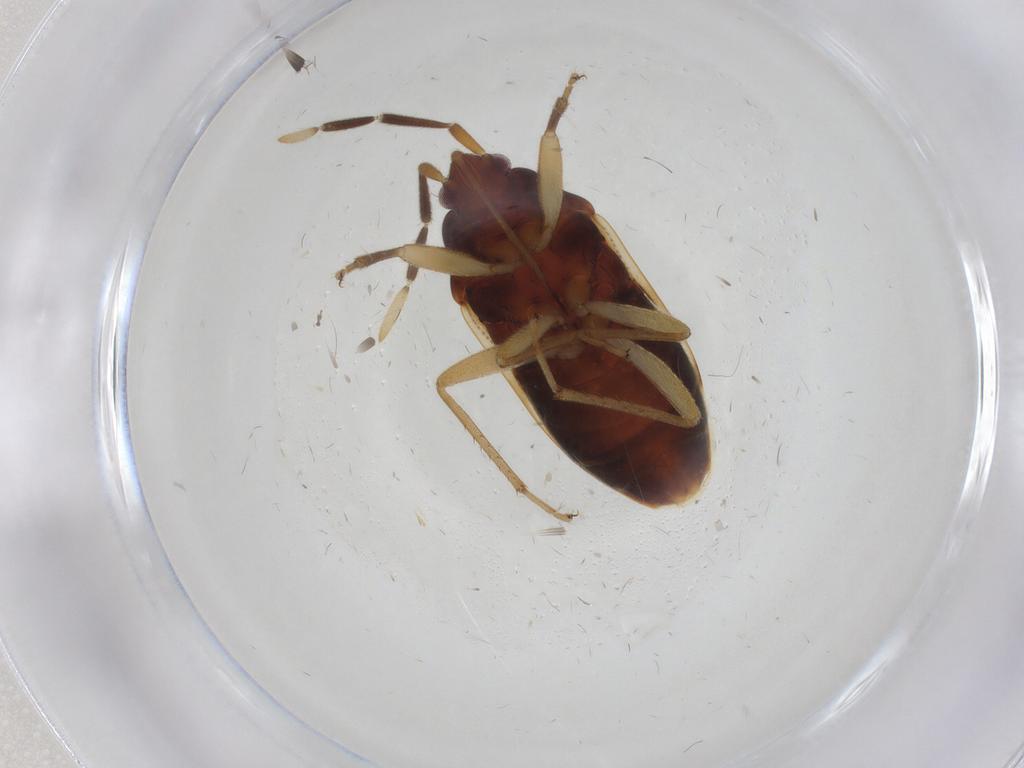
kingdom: Animalia
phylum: Arthropoda
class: Insecta
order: Hemiptera
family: Rhyparochromidae
